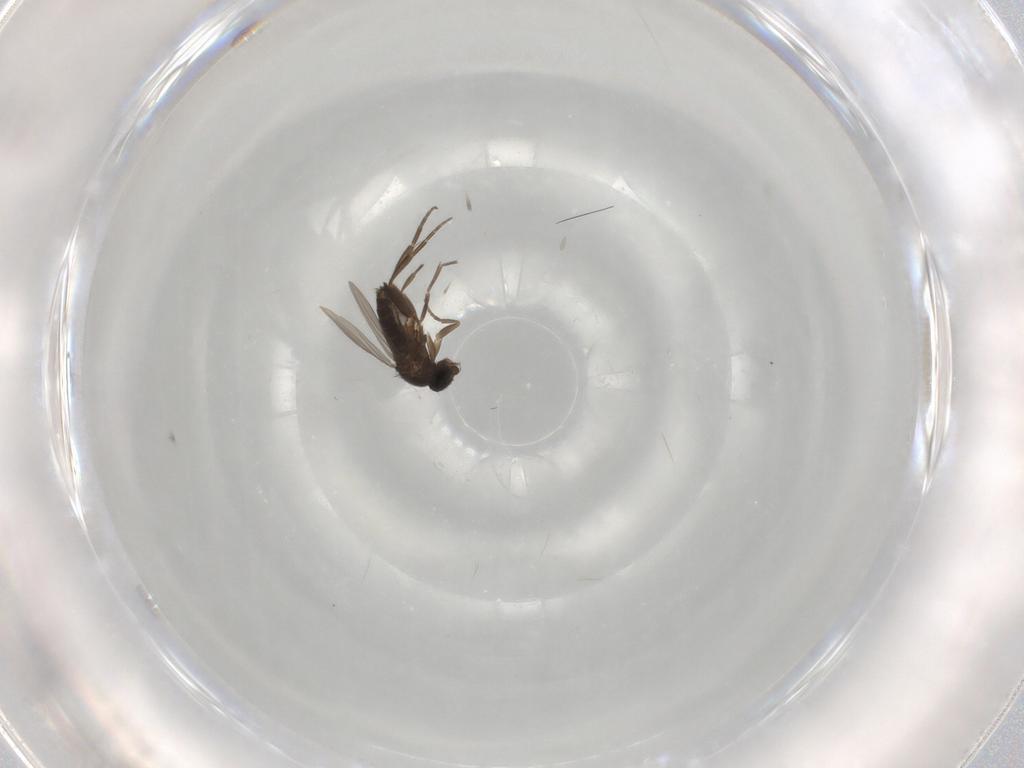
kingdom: Animalia
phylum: Arthropoda
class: Insecta
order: Diptera
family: Phoridae
